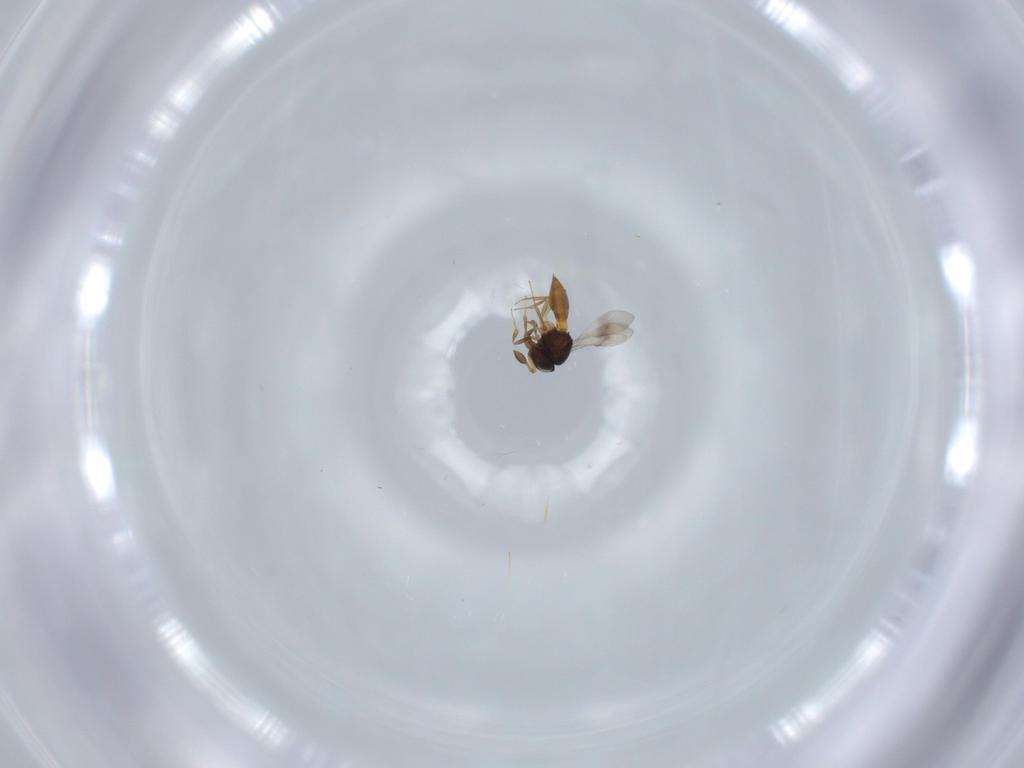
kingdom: Animalia
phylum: Arthropoda
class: Insecta
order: Hymenoptera
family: Scelionidae
